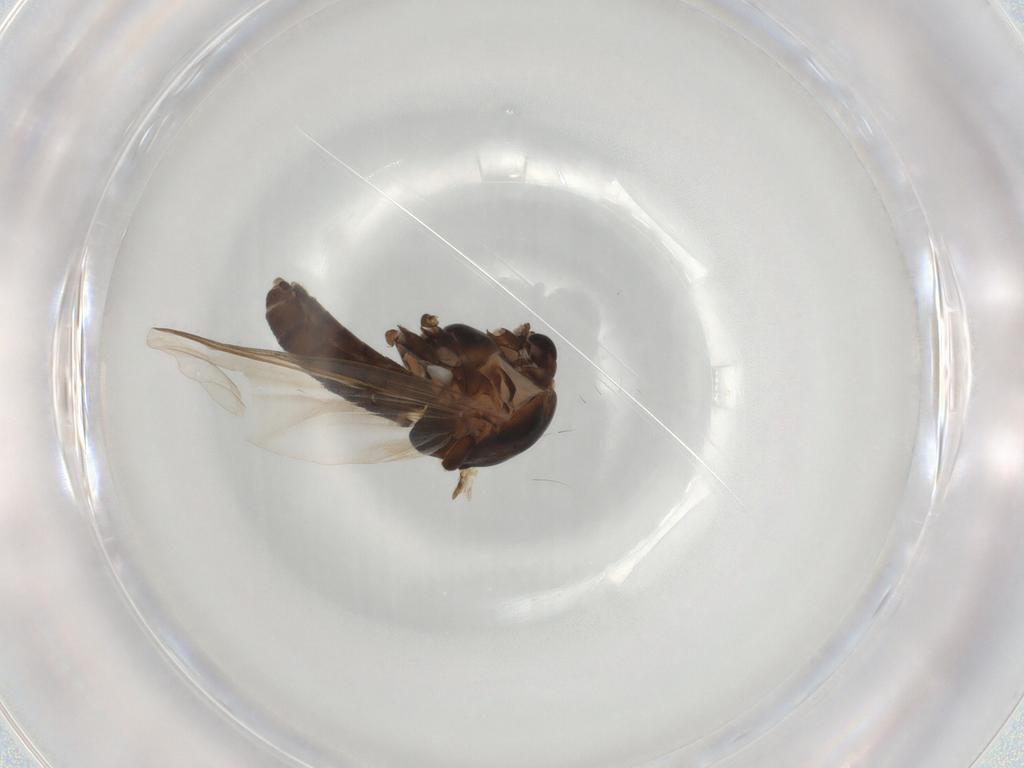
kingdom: Animalia
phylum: Arthropoda
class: Insecta
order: Diptera
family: Chironomidae
